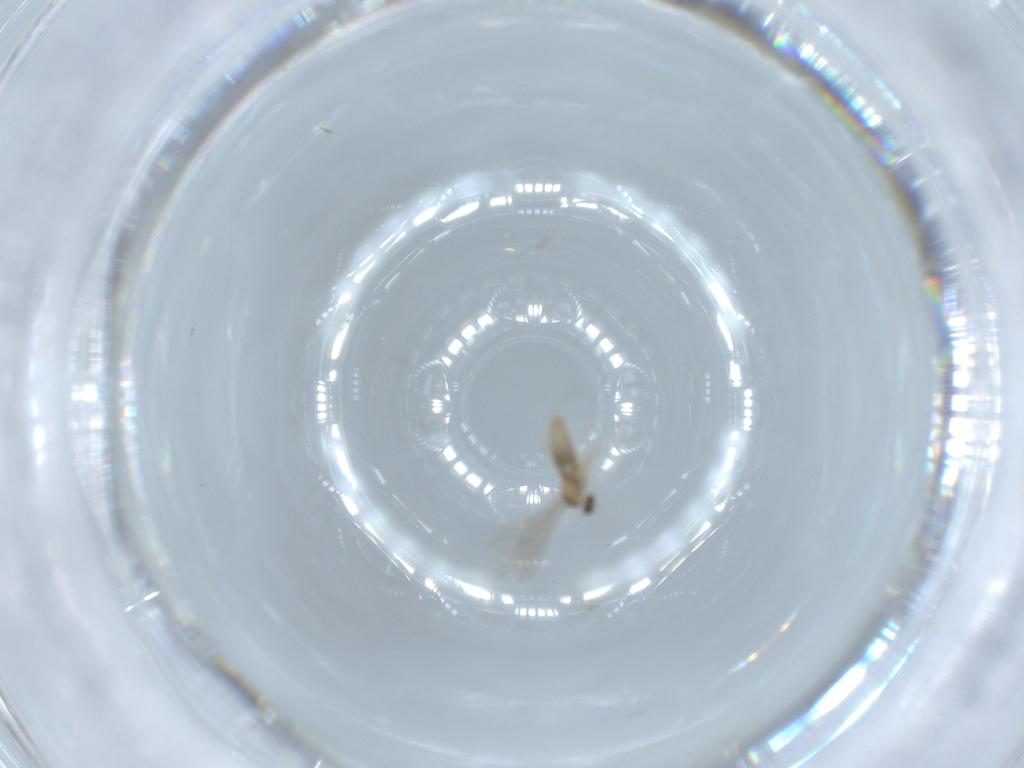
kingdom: Animalia
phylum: Arthropoda
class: Insecta
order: Diptera
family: Cecidomyiidae
